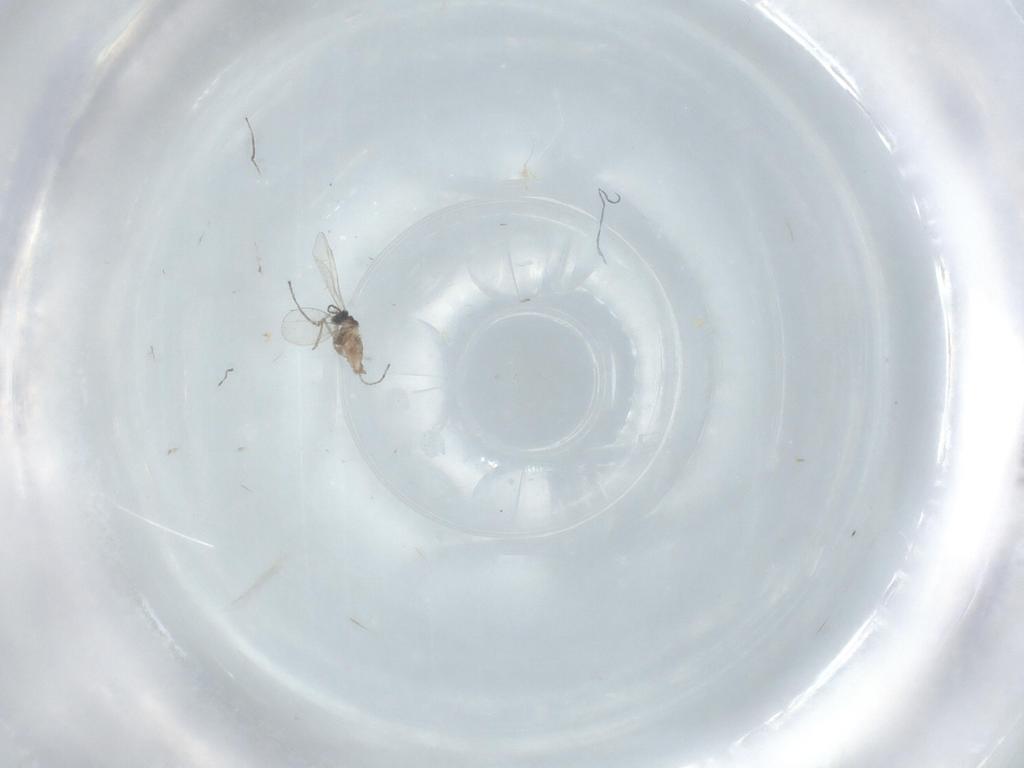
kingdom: Animalia
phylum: Arthropoda
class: Insecta
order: Diptera
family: Cecidomyiidae
